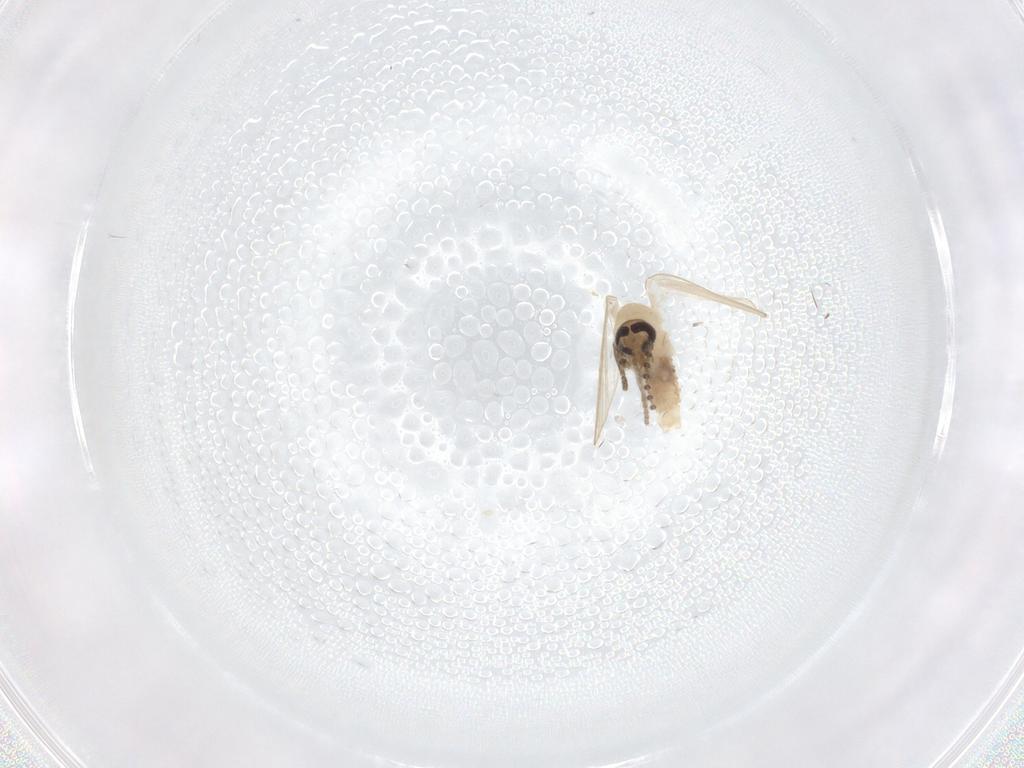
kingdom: Animalia
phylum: Arthropoda
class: Insecta
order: Diptera
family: Psychodidae
